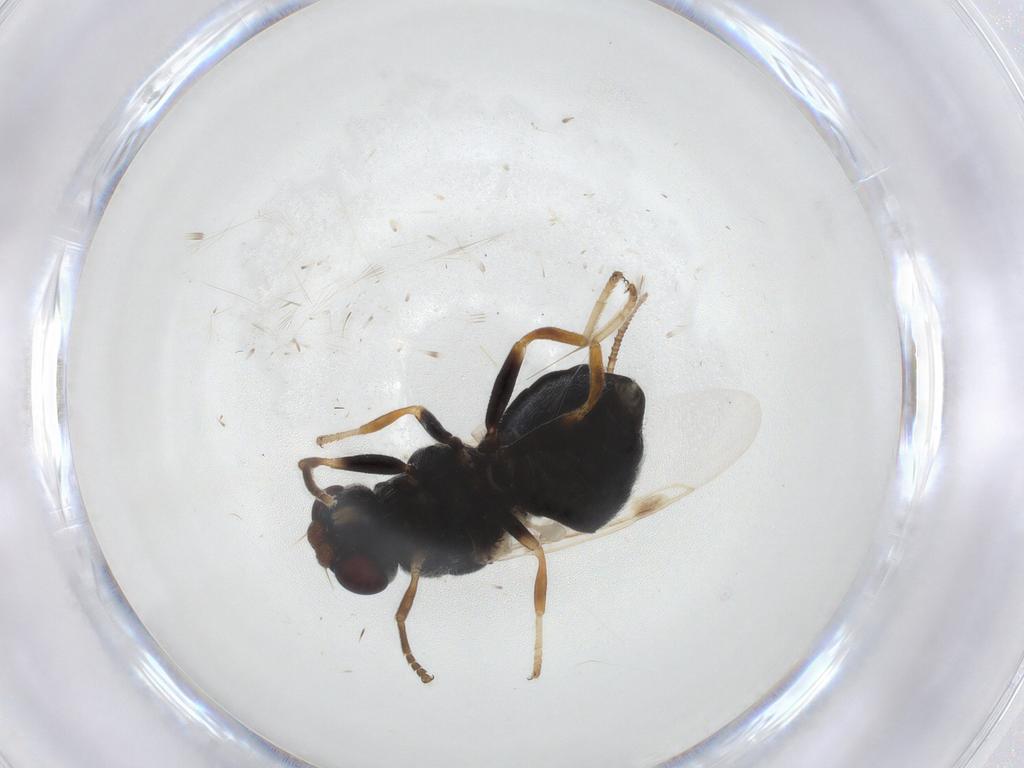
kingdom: Animalia
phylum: Arthropoda
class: Insecta
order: Diptera
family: Stratiomyidae
